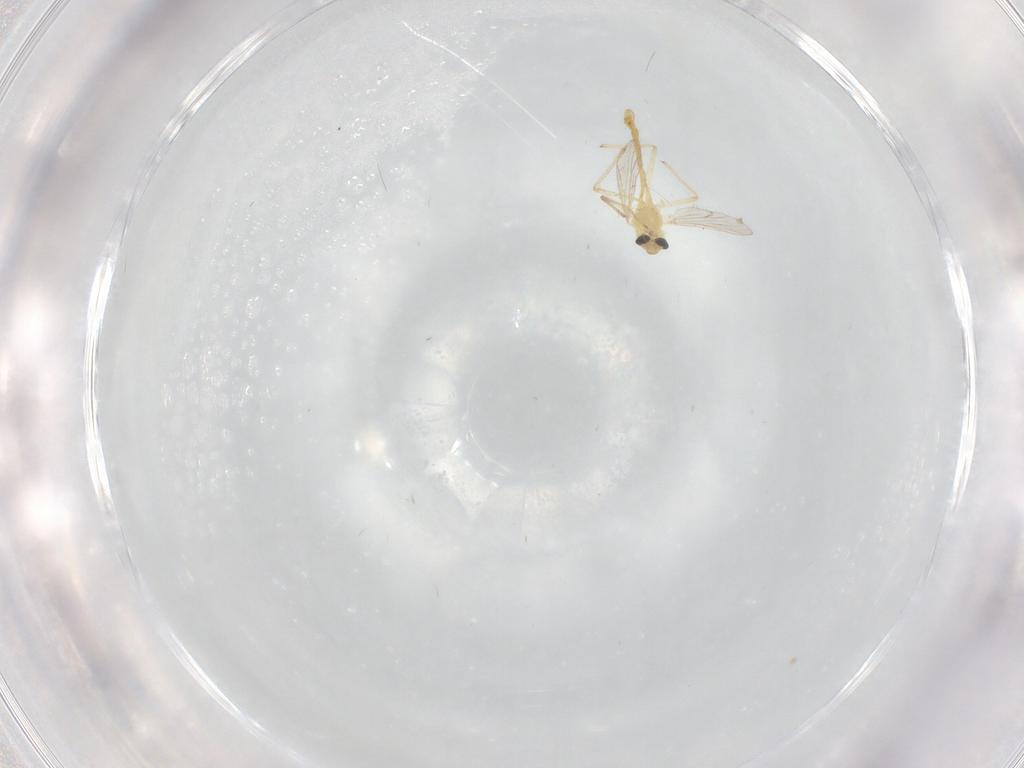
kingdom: Animalia
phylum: Arthropoda
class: Insecta
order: Diptera
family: Chironomidae
